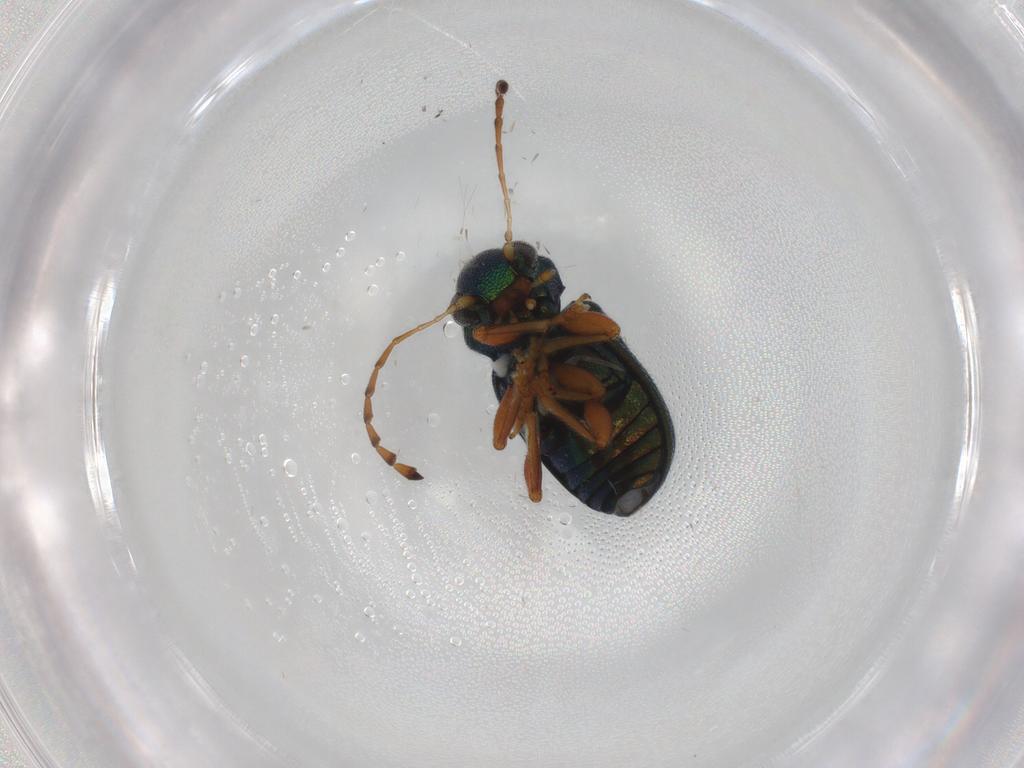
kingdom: Animalia
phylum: Arthropoda
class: Insecta
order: Coleoptera
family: Chrysomelidae
